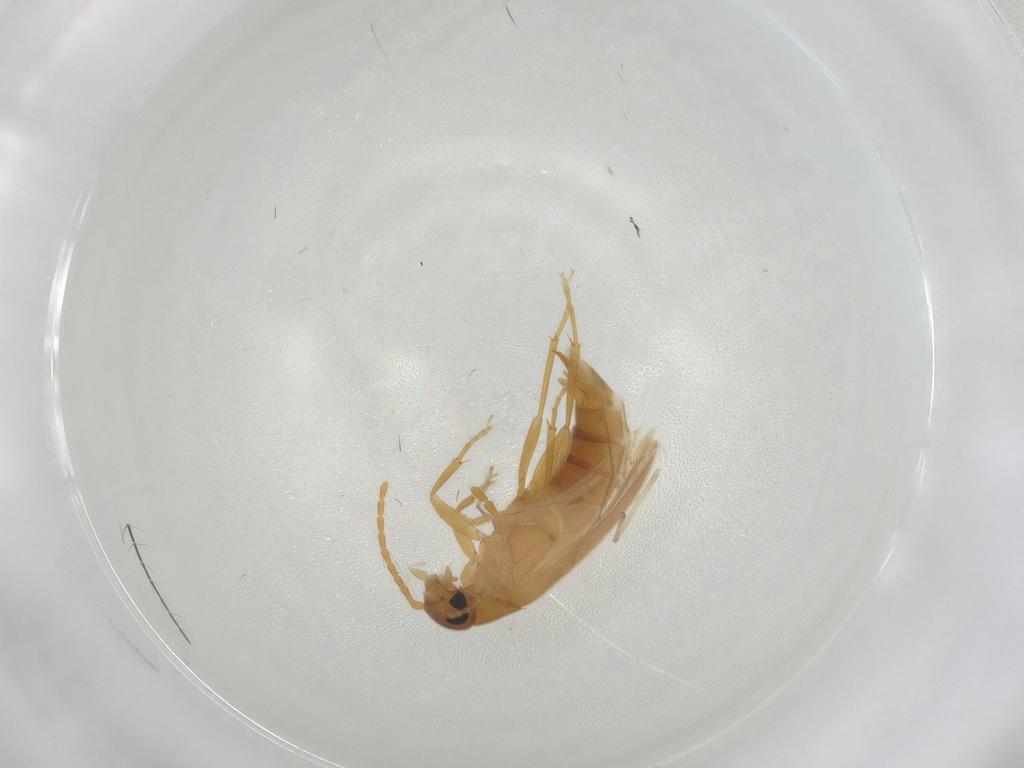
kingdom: Animalia
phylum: Arthropoda
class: Insecta
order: Coleoptera
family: Scraptiidae
